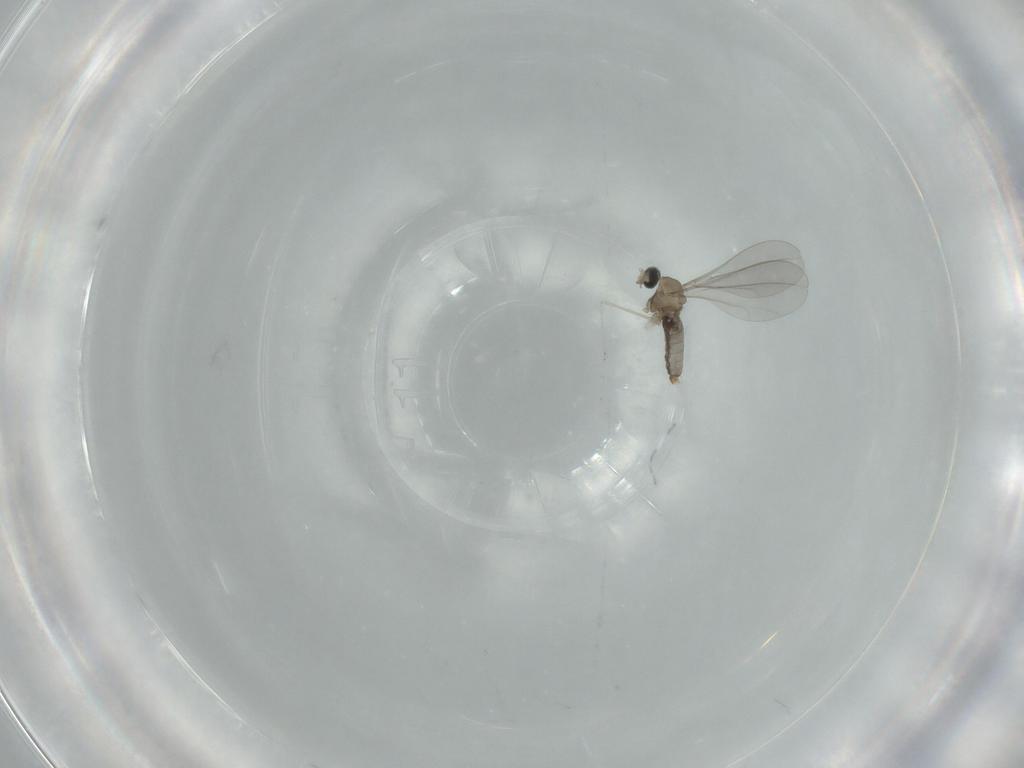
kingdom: Animalia
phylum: Arthropoda
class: Insecta
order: Diptera
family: Cecidomyiidae
